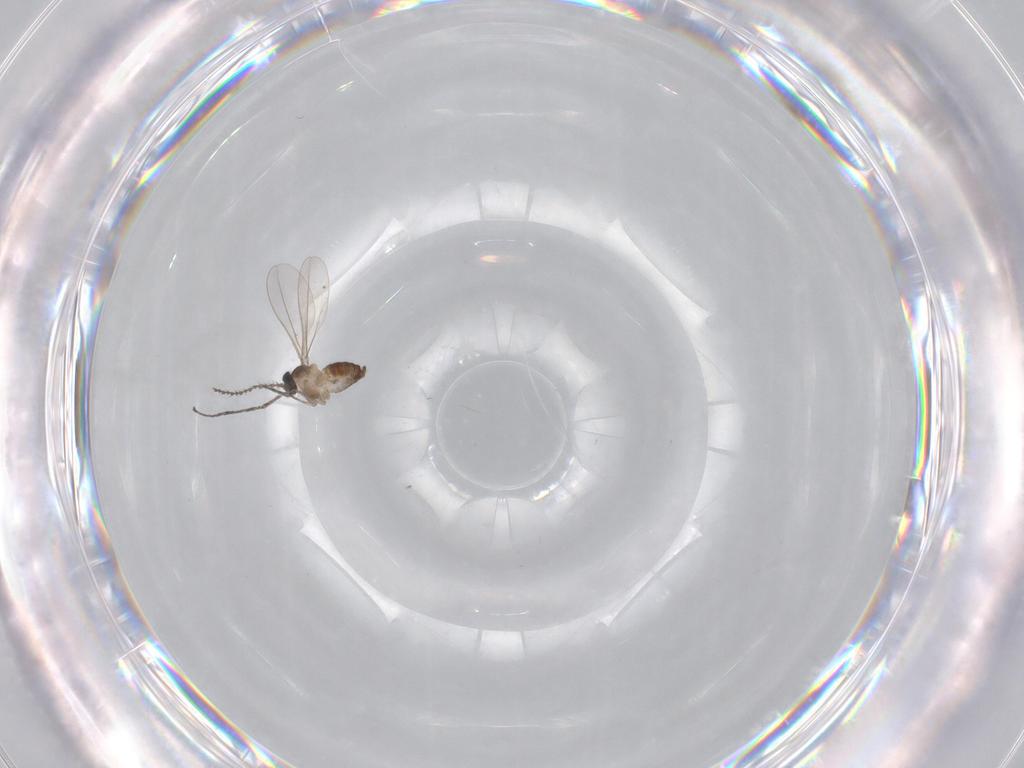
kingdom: Animalia
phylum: Arthropoda
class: Insecta
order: Diptera
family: Cecidomyiidae
